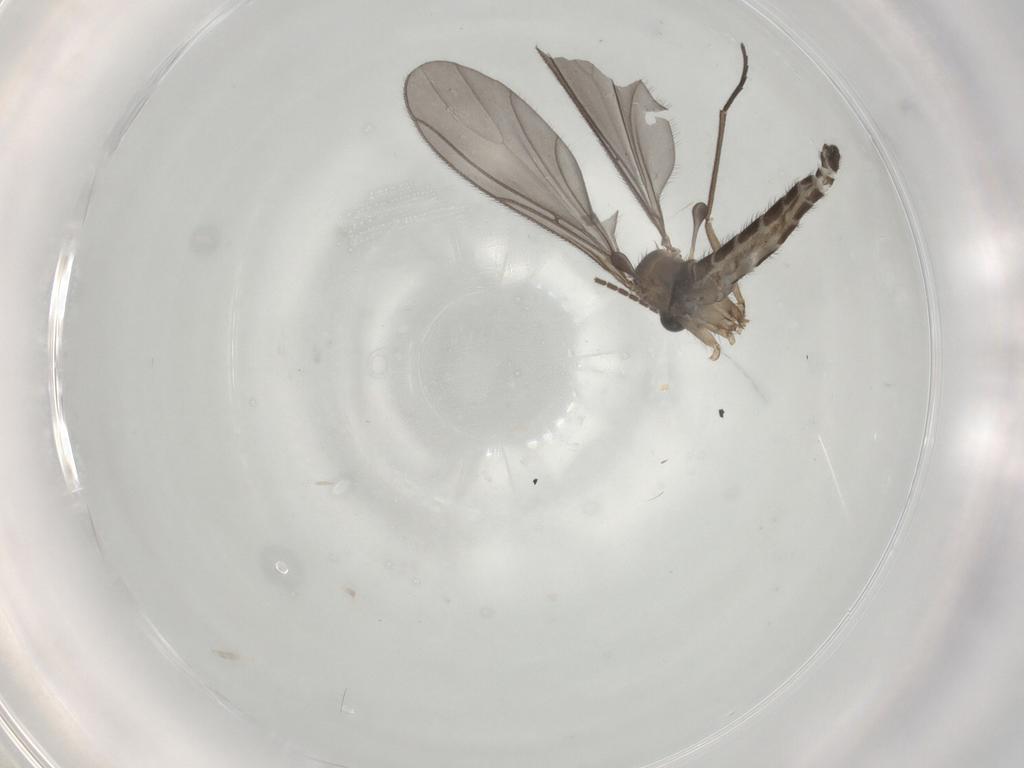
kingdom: Animalia
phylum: Arthropoda
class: Insecta
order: Diptera
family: Sciaridae
